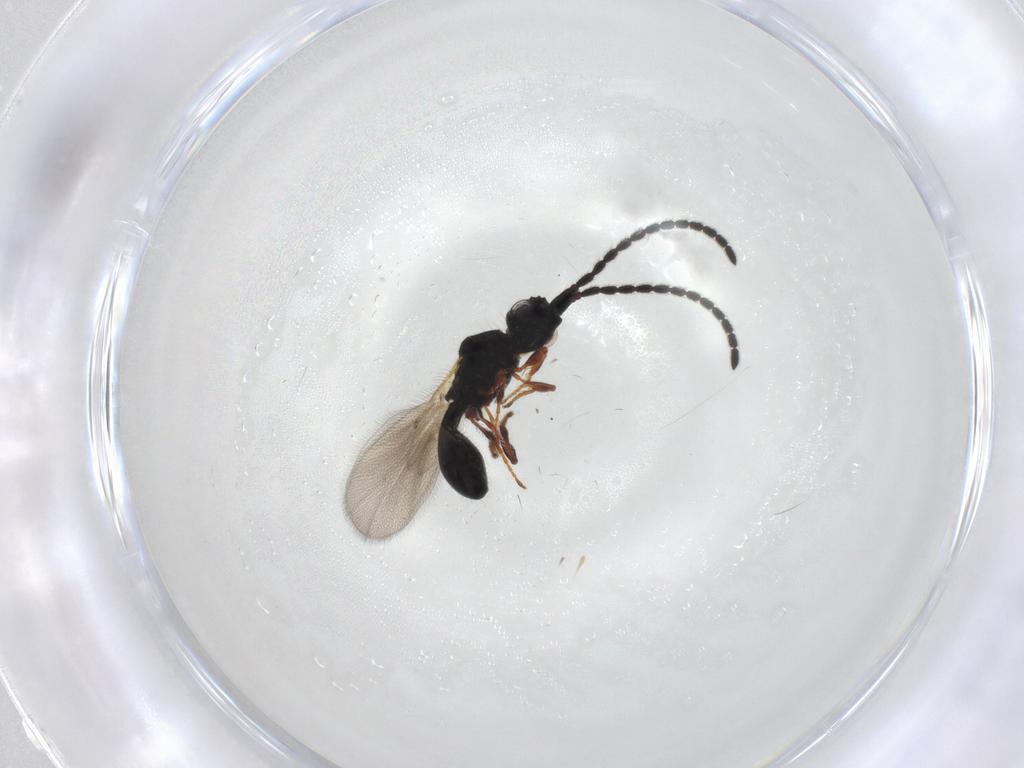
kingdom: Animalia
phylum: Arthropoda
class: Insecta
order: Hymenoptera
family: Diapriidae
